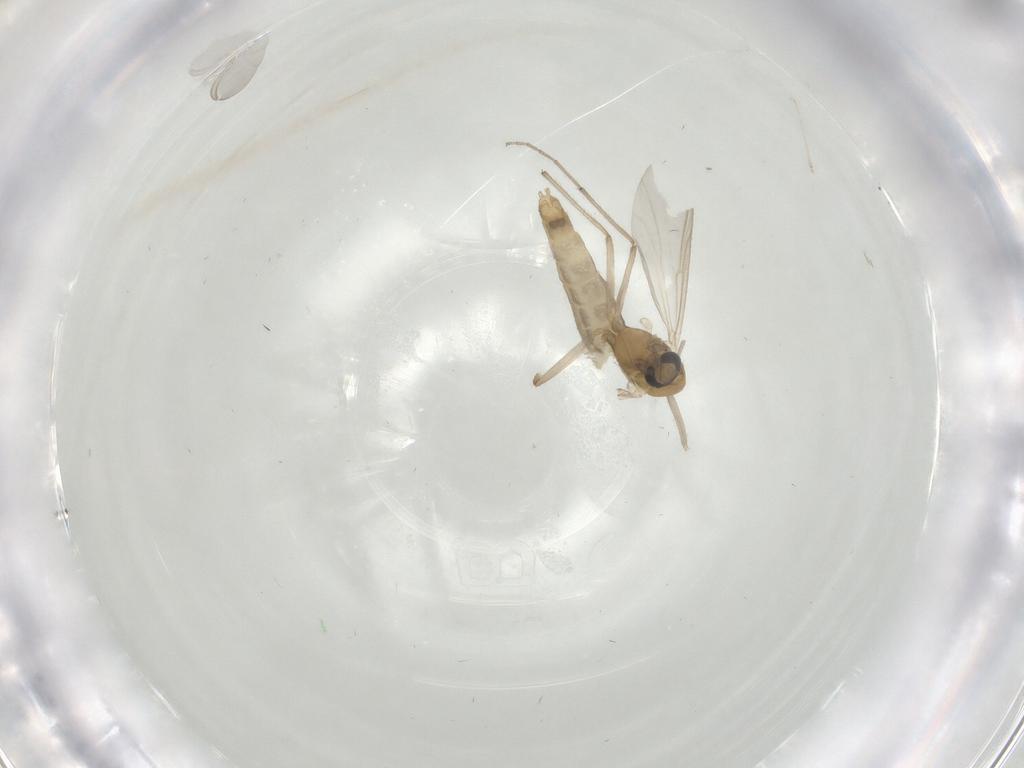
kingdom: Animalia
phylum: Arthropoda
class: Insecta
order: Diptera
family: Chironomidae
